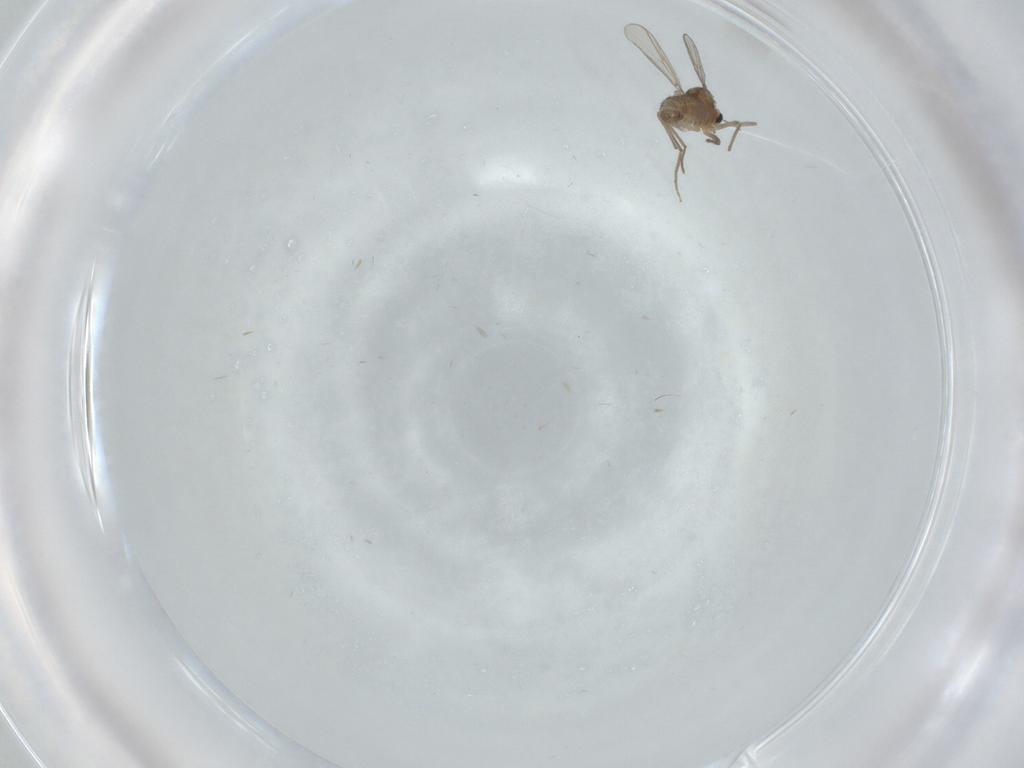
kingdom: Animalia
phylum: Arthropoda
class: Insecta
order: Diptera
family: Chironomidae
